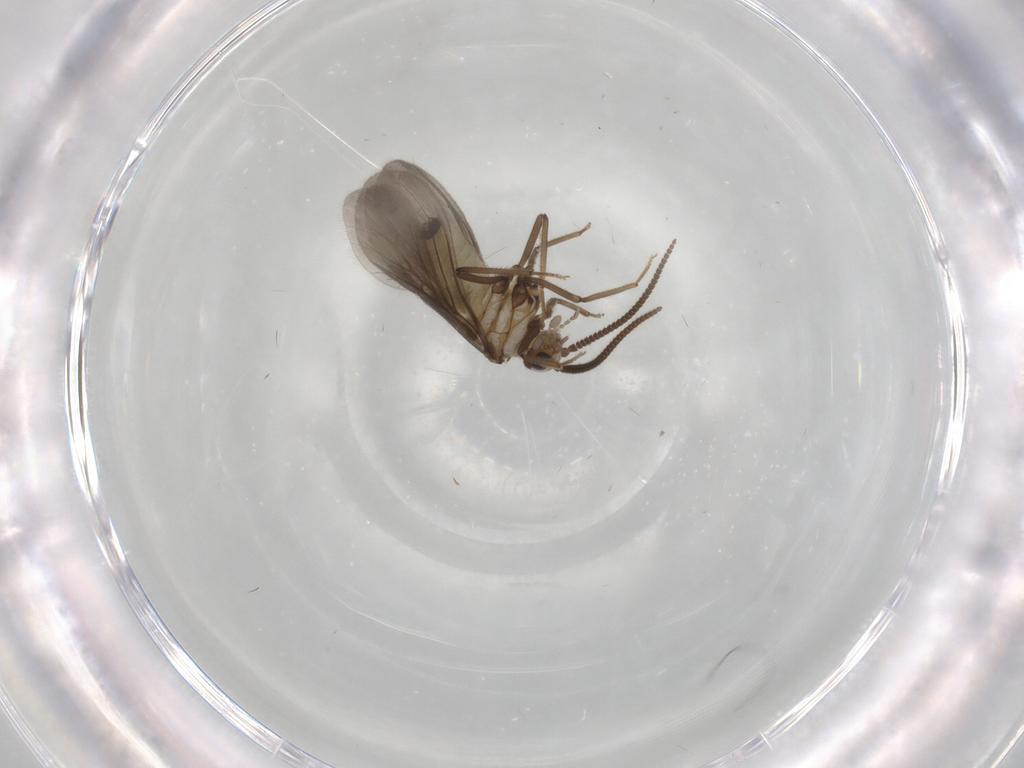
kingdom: Animalia
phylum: Arthropoda
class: Insecta
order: Neuroptera
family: Coniopterygidae
